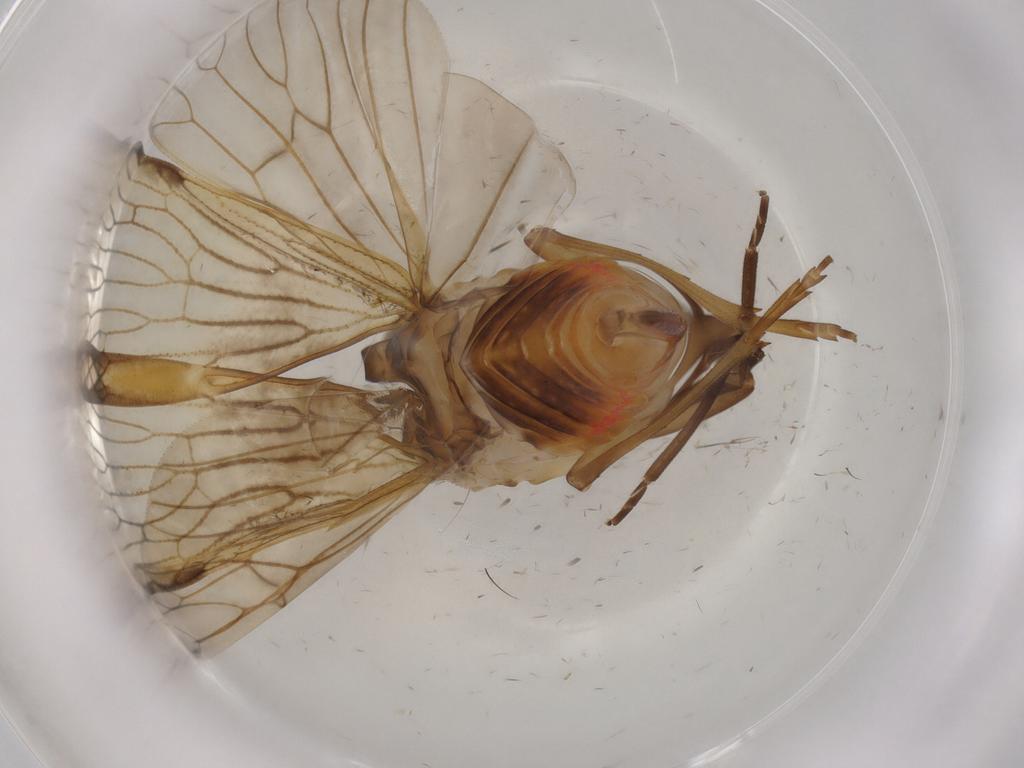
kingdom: Animalia
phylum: Arthropoda
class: Insecta
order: Hemiptera
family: Cixiidae
